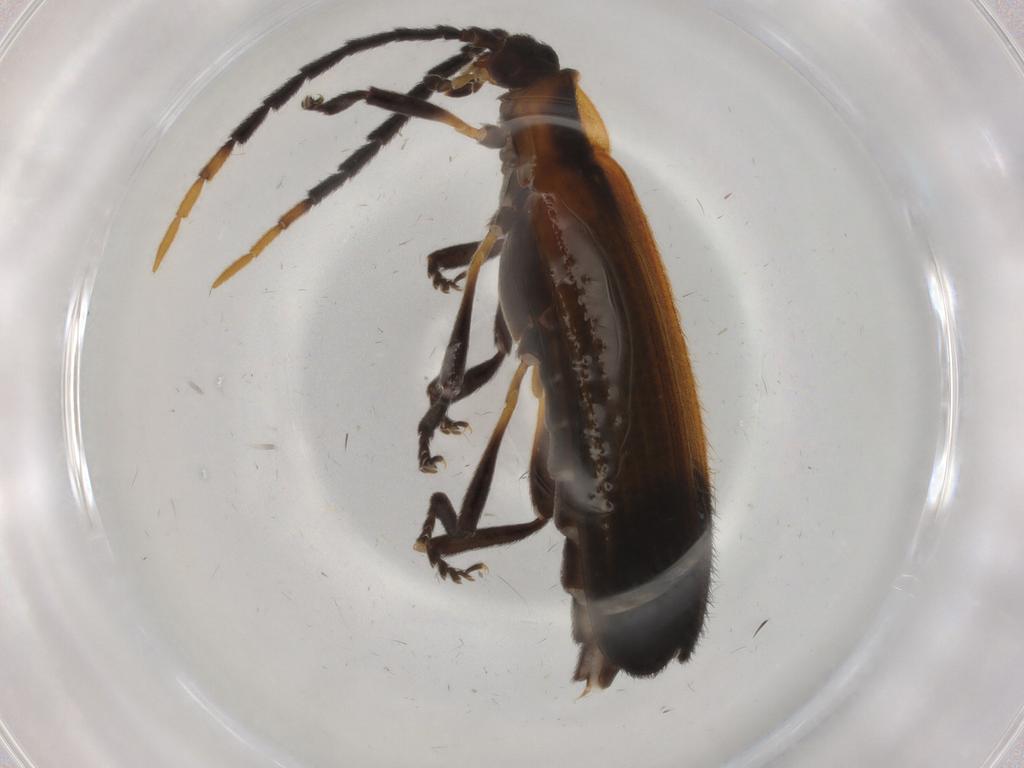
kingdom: Animalia
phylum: Arthropoda
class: Insecta
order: Coleoptera
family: Lycidae
